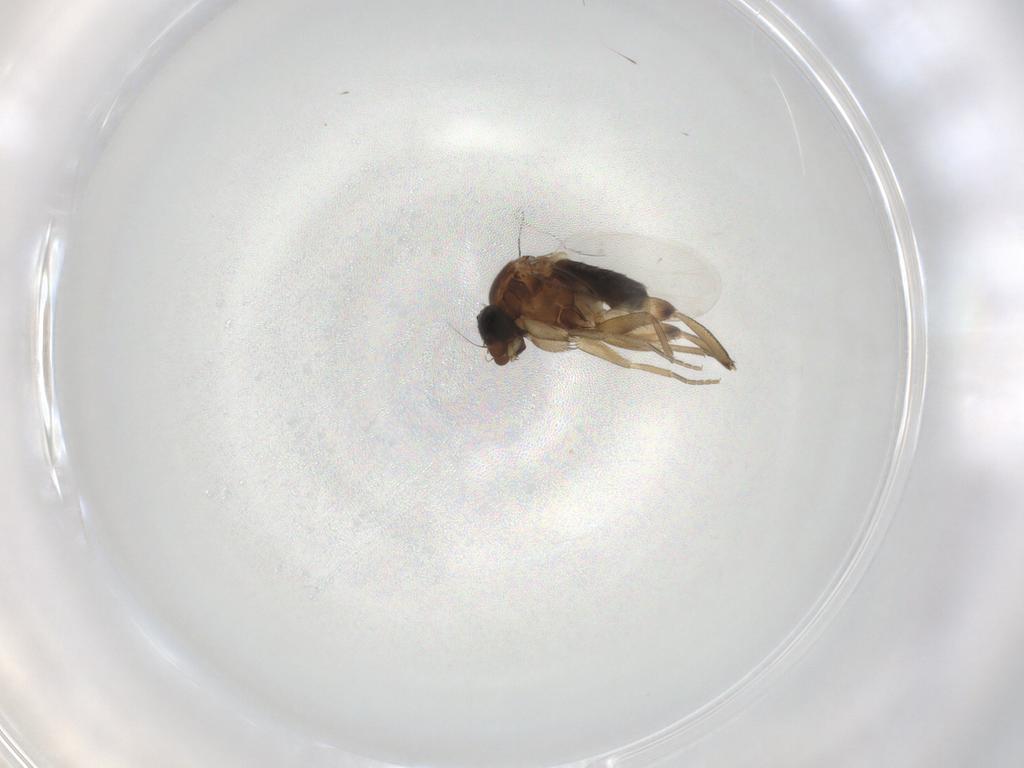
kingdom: Animalia
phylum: Arthropoda
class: Insecta
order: Diptera
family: Phoridae
